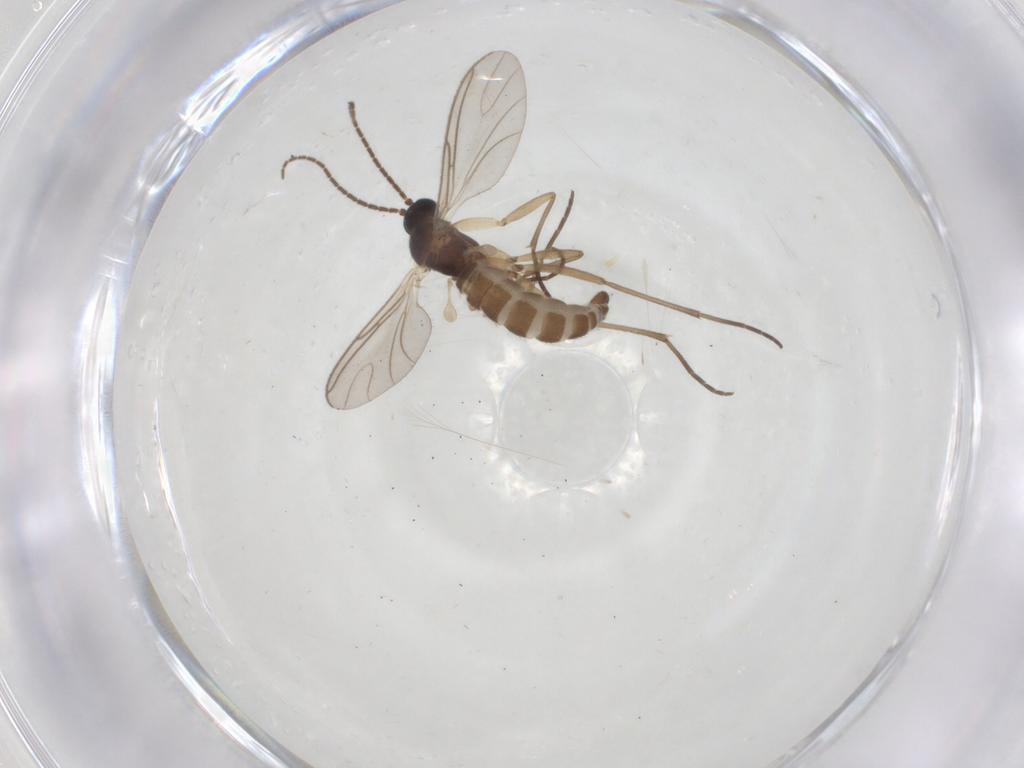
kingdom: Animalia
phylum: Arthropoda
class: Insecta
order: Diptera
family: Sciaridae
